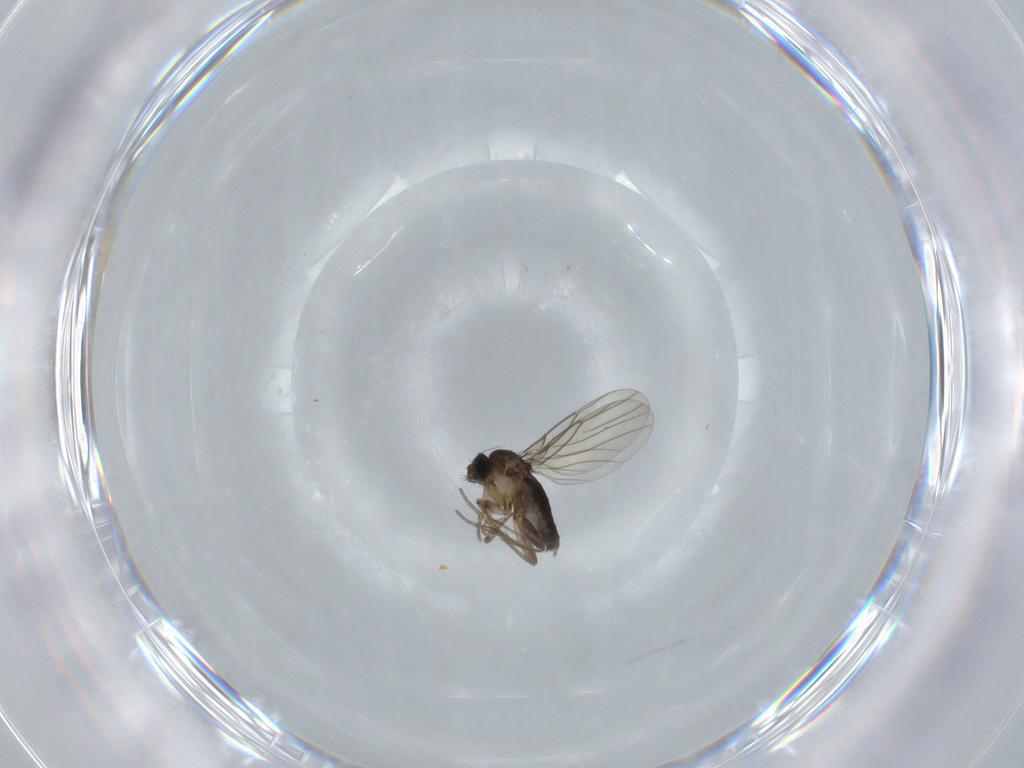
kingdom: Animalia
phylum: Arthropoda
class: Insecta
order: Diptera
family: Phoridae
